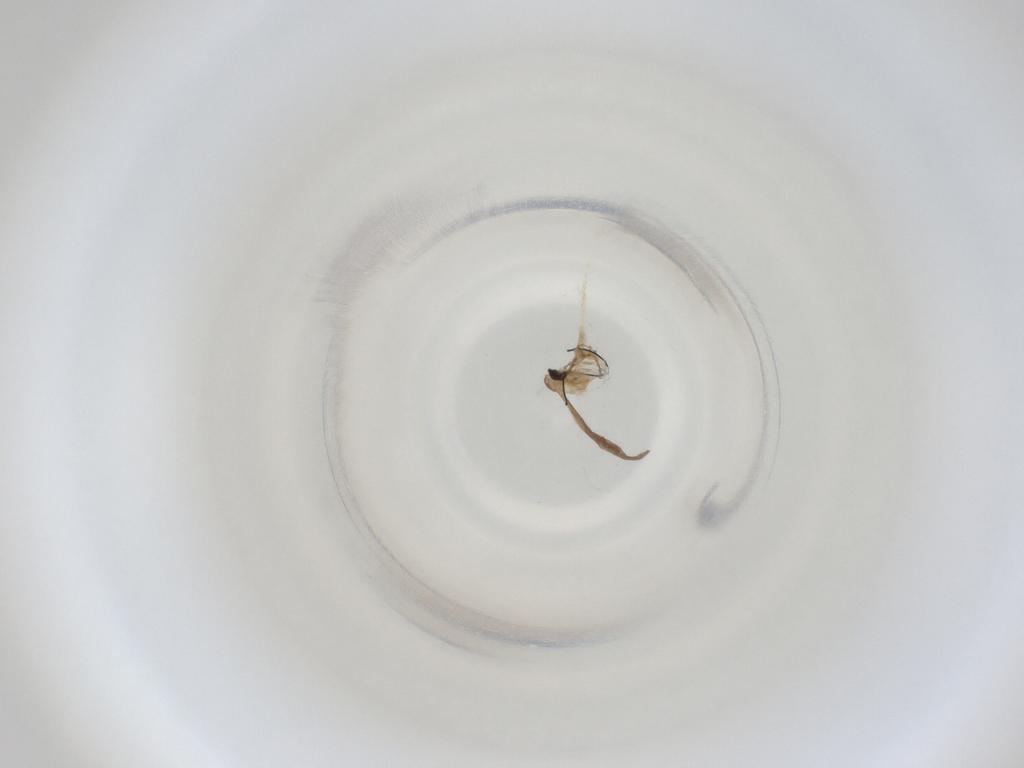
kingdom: Animalia
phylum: Arthropoda
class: Insecta
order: Diptera
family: Cecidomyiidae
